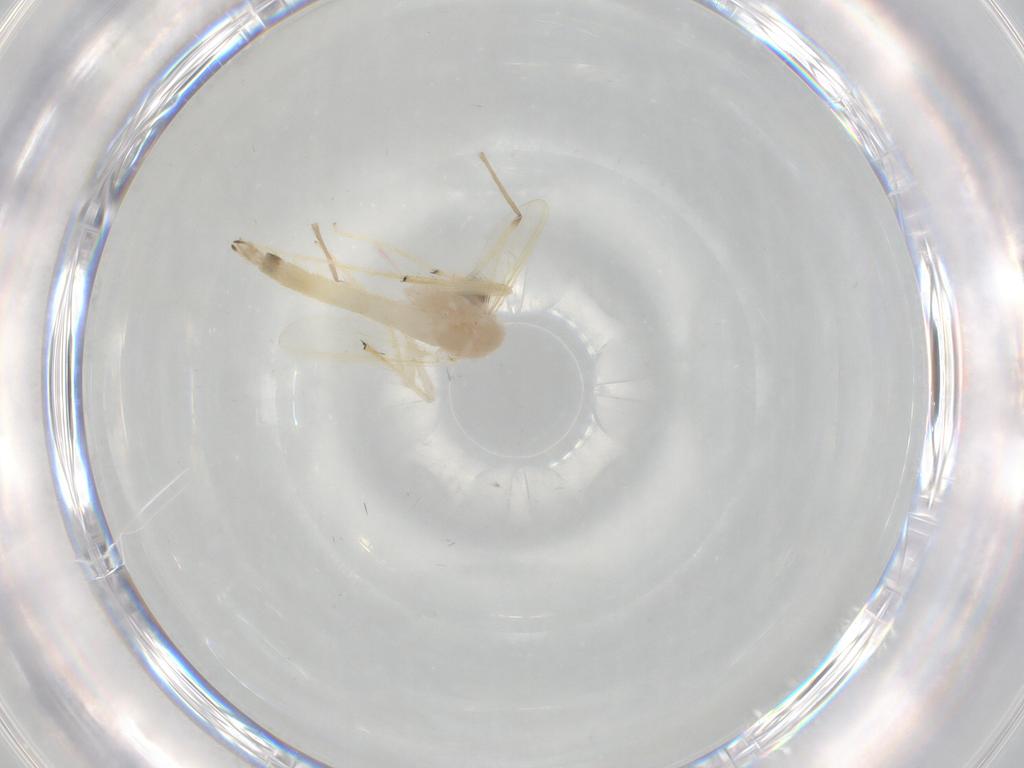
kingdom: Animalia
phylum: Arthropoda
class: Insecta
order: Diptera
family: Chironomidae
